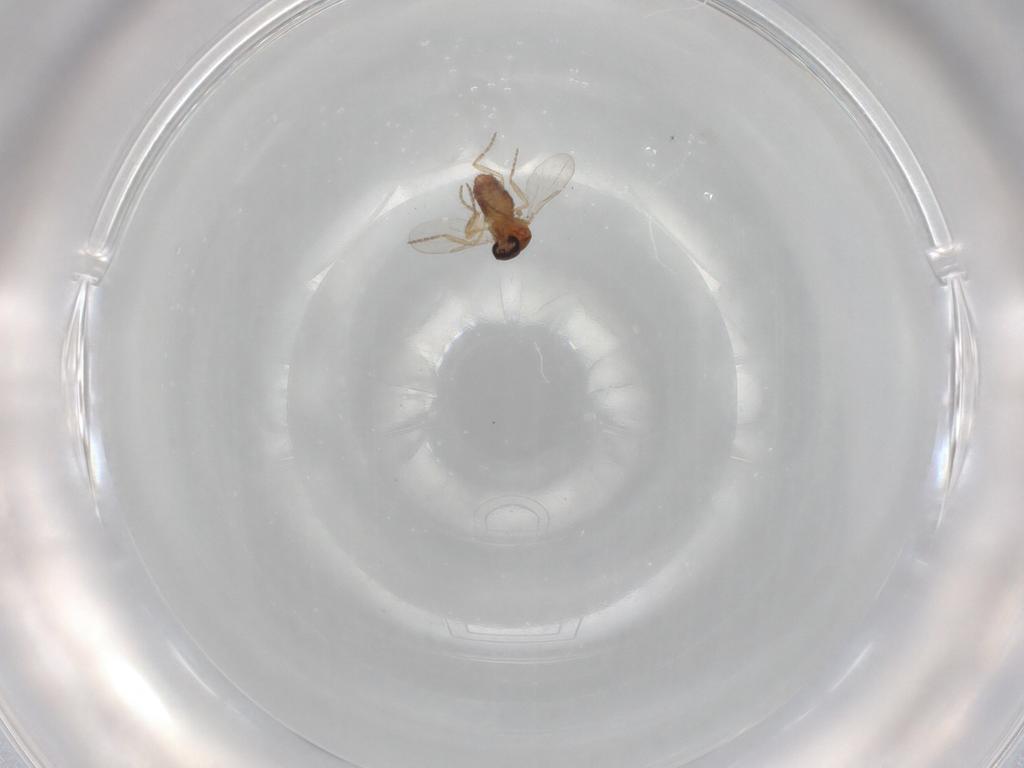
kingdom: Animalia
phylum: Arthropoda
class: Insecta
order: Diptera
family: Ceratopogonidae
